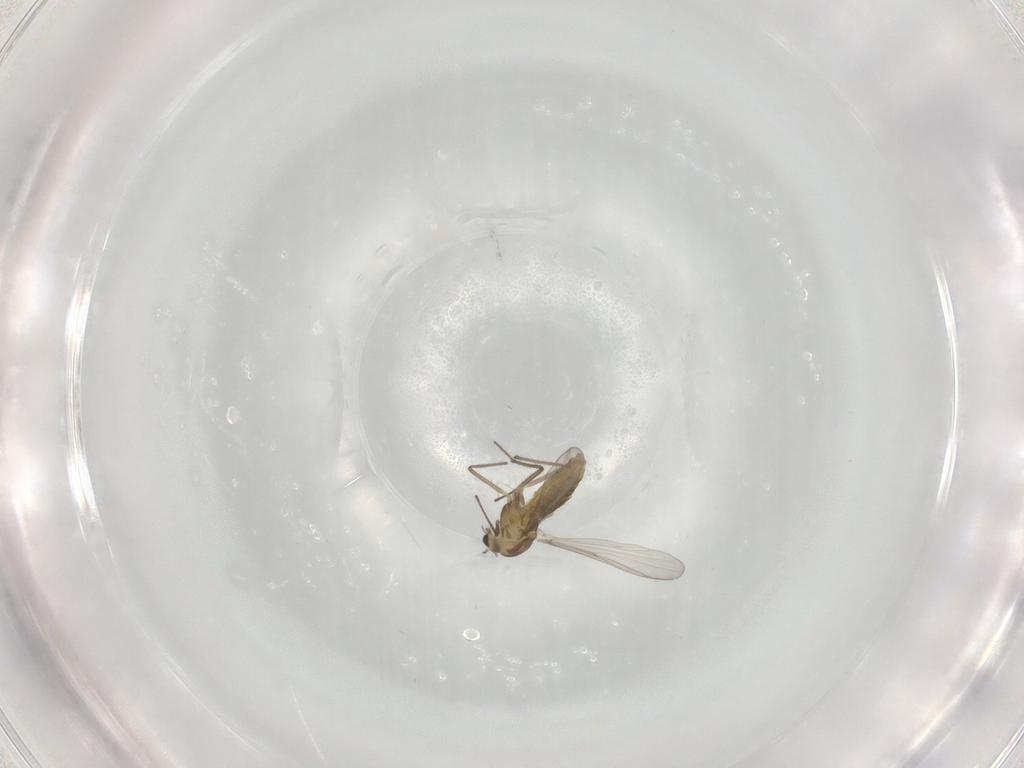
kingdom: Animalia
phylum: Arthropoda
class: Insecta
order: Diptera
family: Chironomidae
